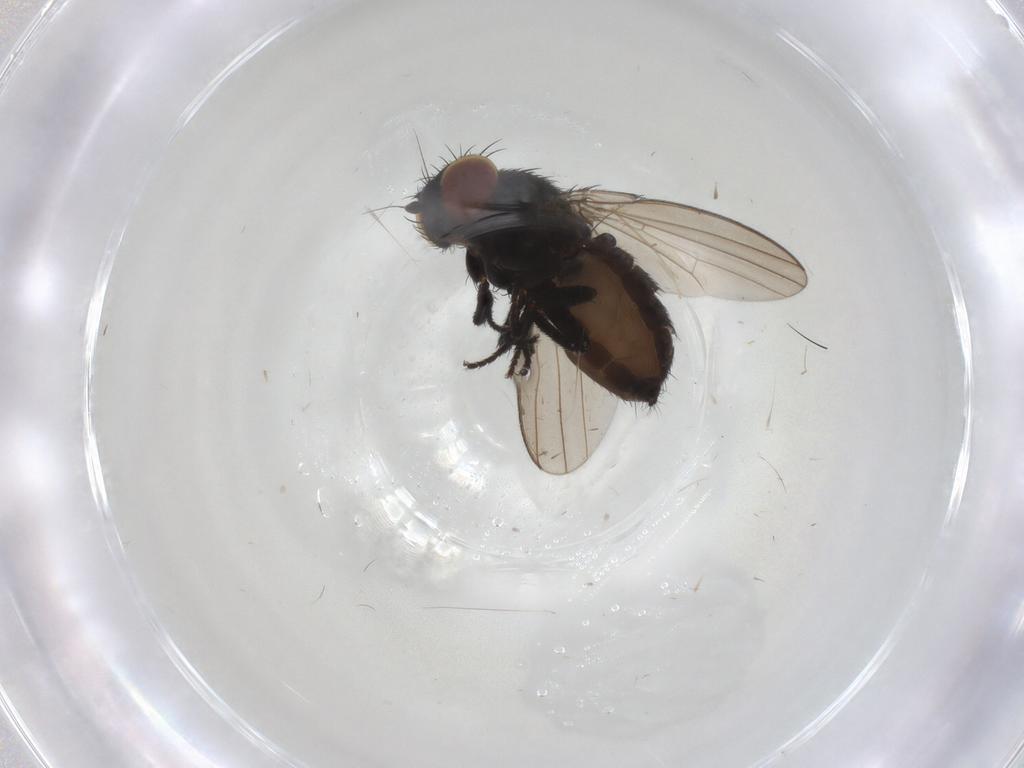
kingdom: Animalia
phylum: Arthropoda
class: Insecta
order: Diptera
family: Milichiidae
